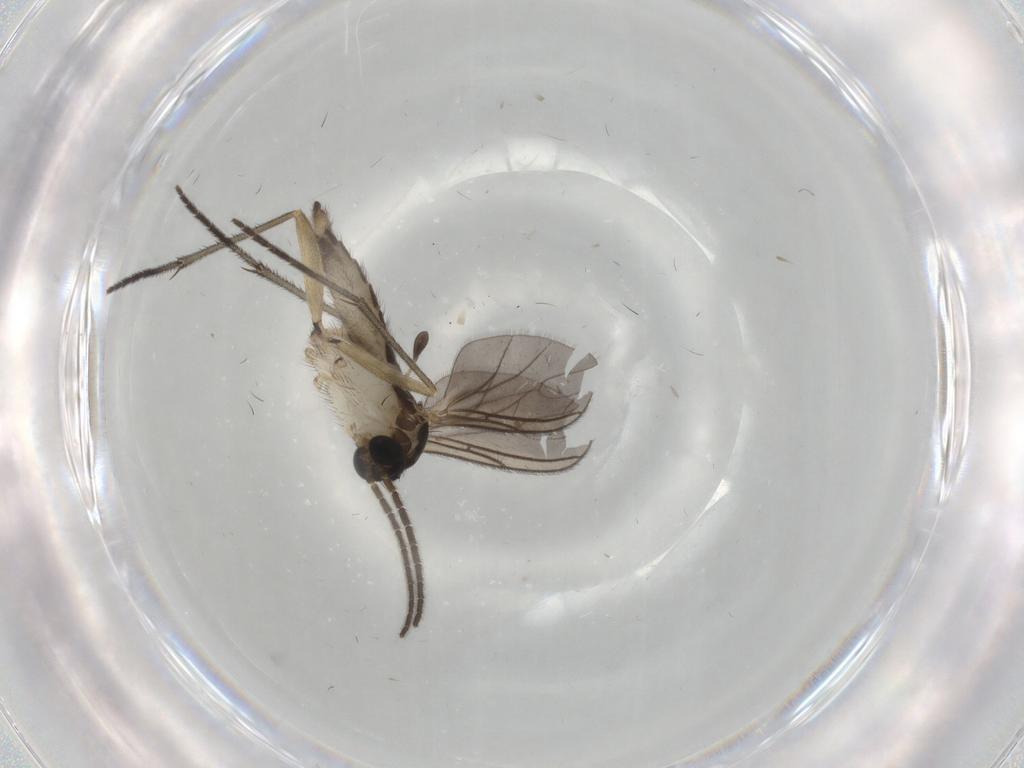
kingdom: Animalia
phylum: Arthropoda
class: Insecta
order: Diptera
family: Sciaridae
